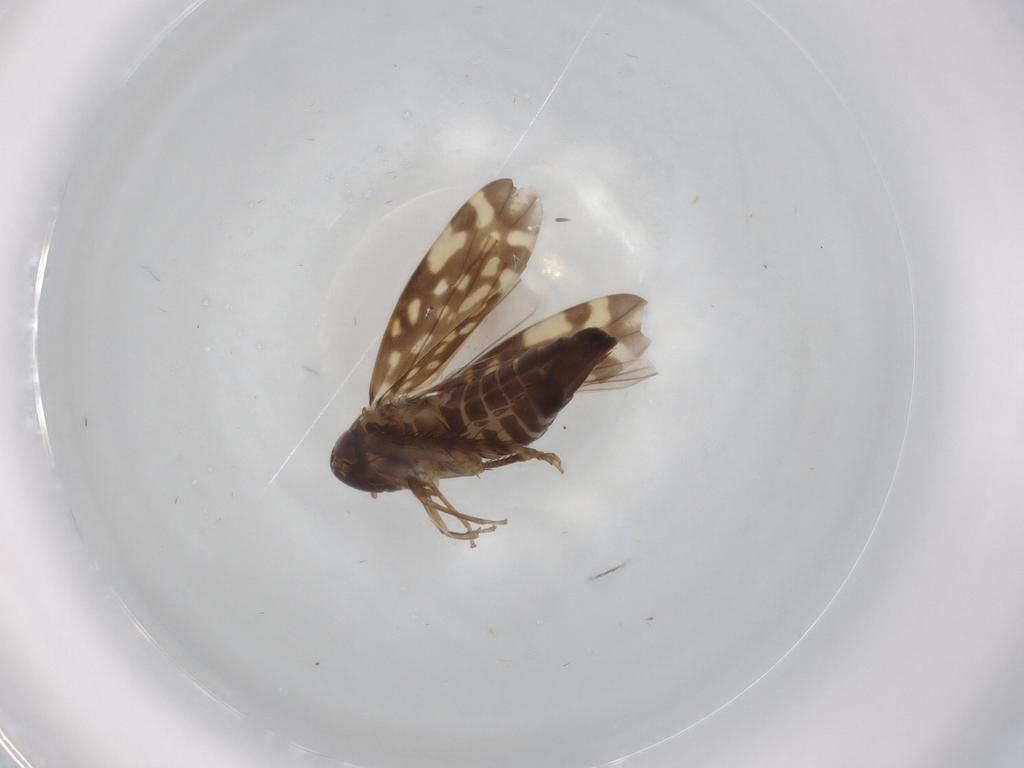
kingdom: Animalia
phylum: Arthropoda
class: Insecta
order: Hemiptera
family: Cicadellidae
